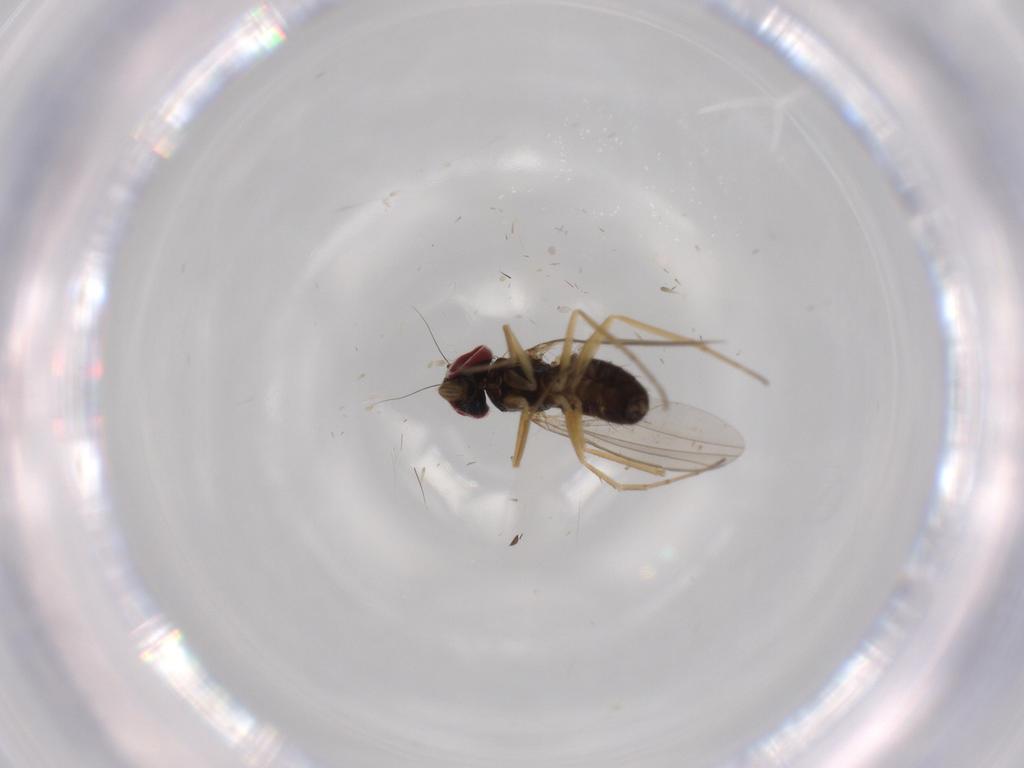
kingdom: Animalia
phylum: Arthropoda
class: Insecta
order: Diptera
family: Dolichopodidae
